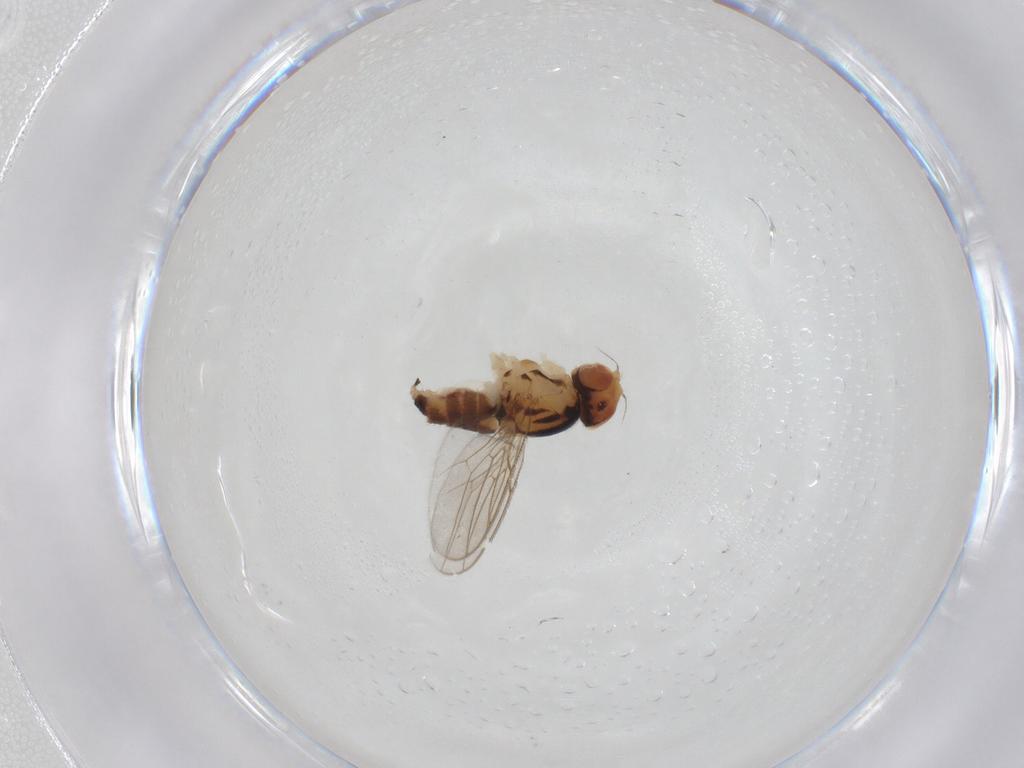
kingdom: Animalia
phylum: Arthropoda
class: Insecta
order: Diptera
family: Chloropidae
